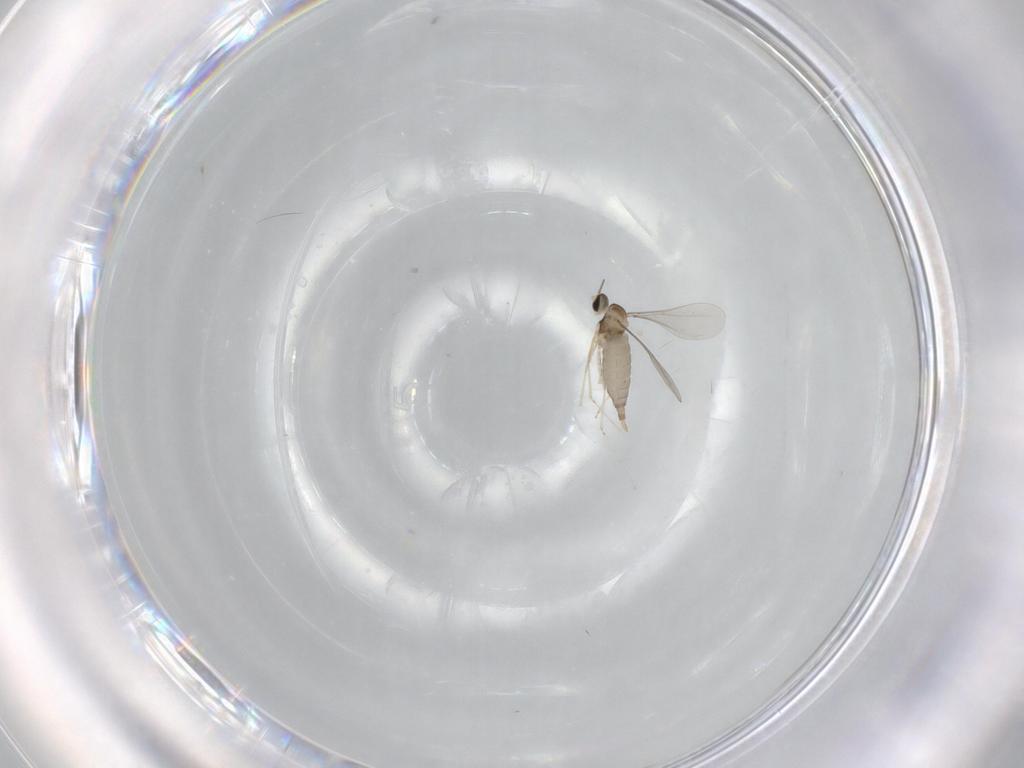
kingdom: Animalia
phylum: Arthropoda
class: Insecta
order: Diptera
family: Cecidomyiidae
